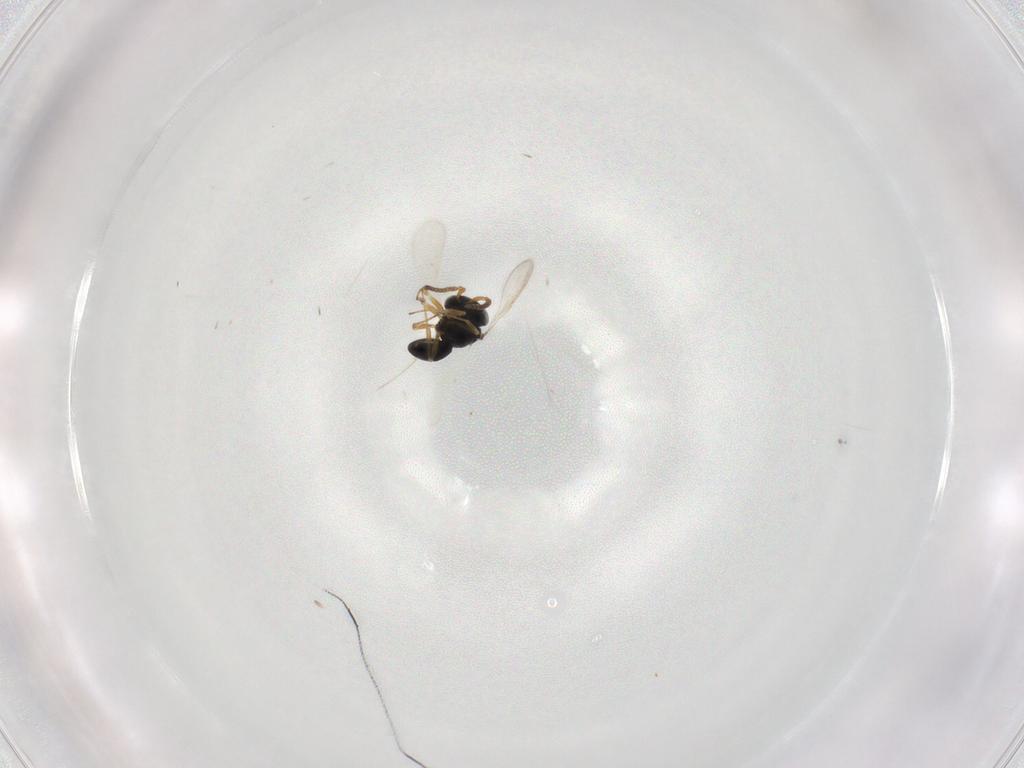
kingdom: Animalia
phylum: Arthropoda
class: Insecta
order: Hymenoptera
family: Scelionidae
